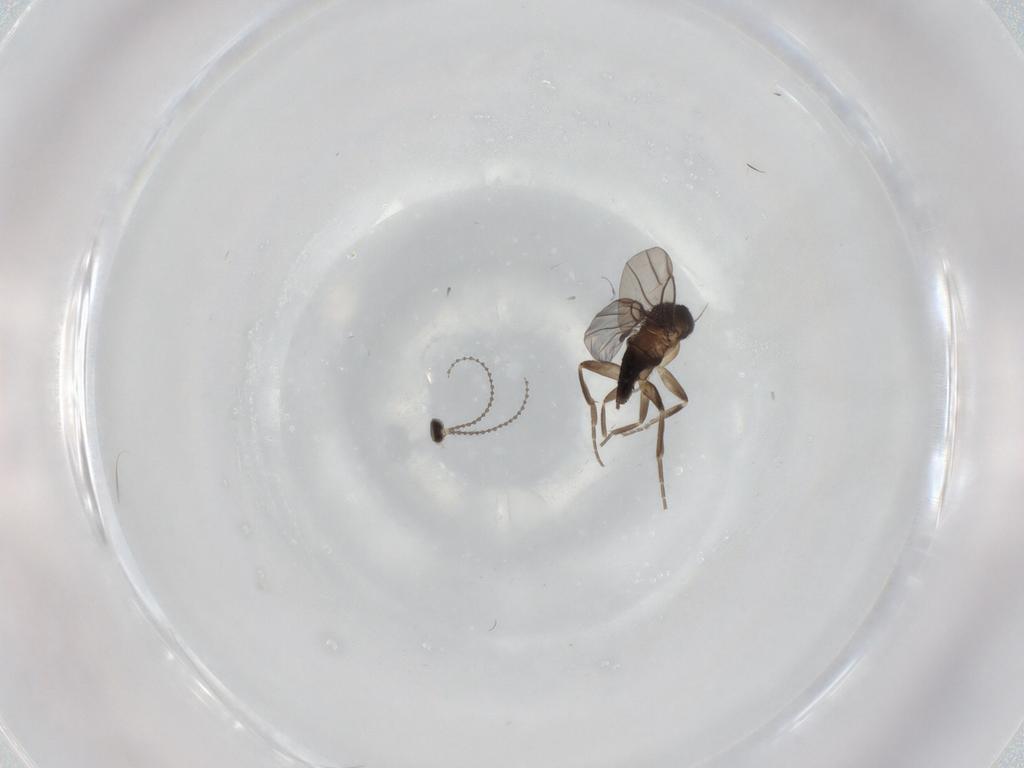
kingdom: Animalia
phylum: Arthropoda
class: Insecta
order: Diptera
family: Cecidomyiidae
